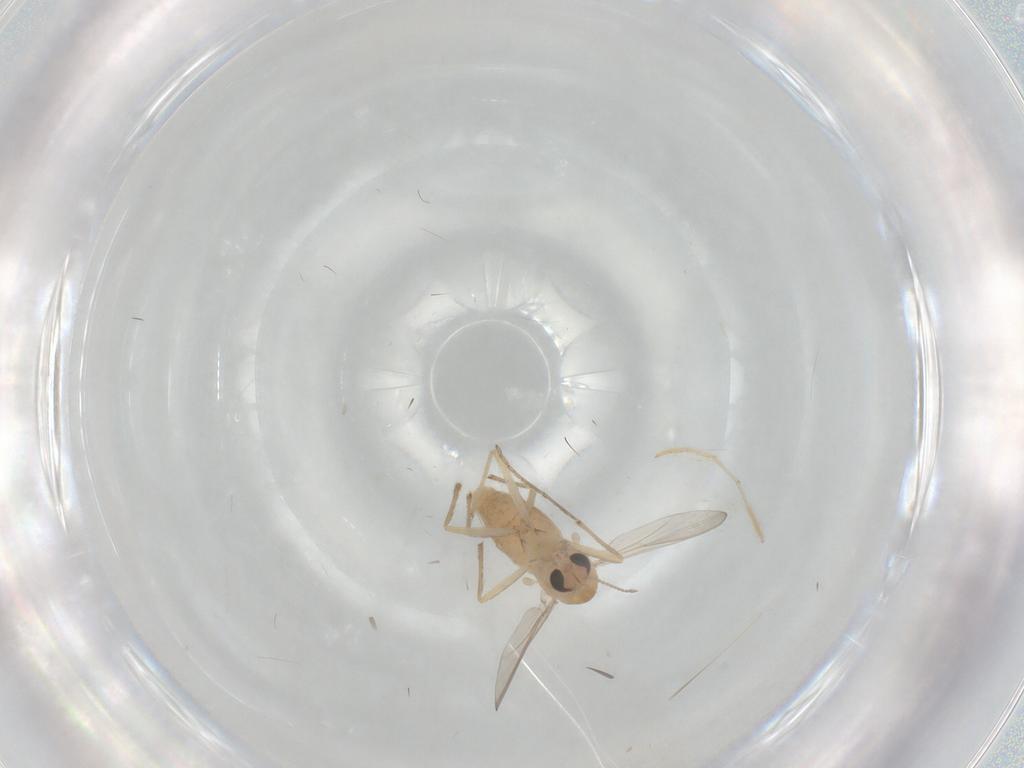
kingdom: Animalia
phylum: Arthropoda
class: Insecta
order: Diptera
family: Chironomidae
